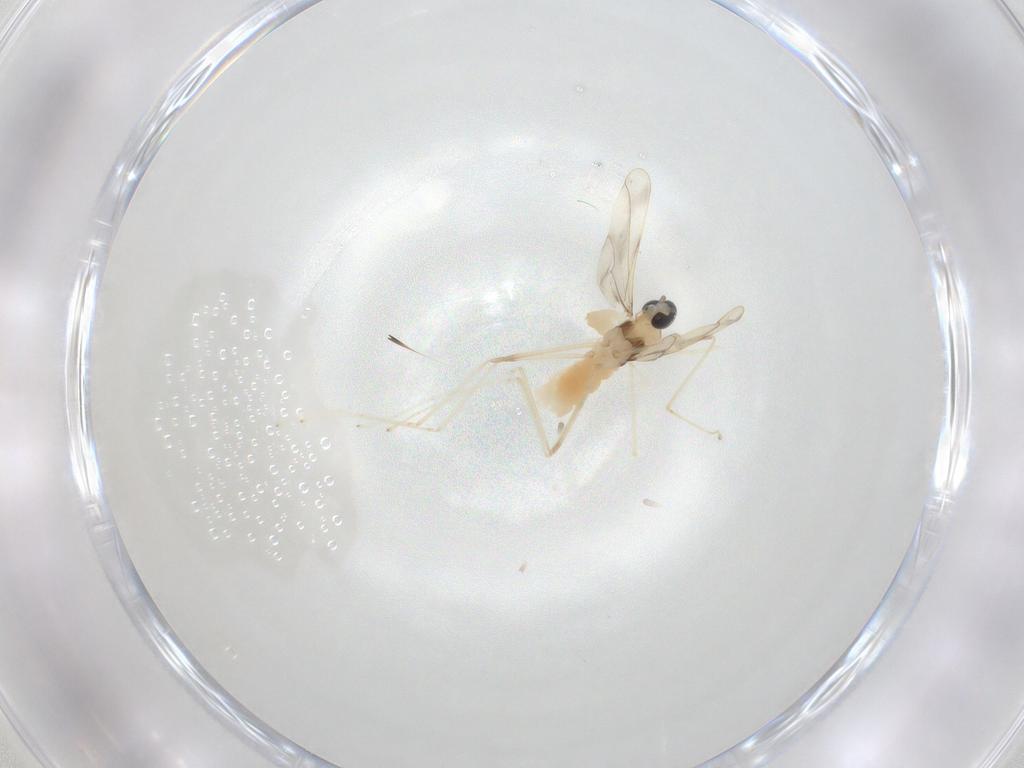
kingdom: Animalia
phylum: Arthropoda
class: Insecta
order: Diptera
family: Cecidomyiidae
